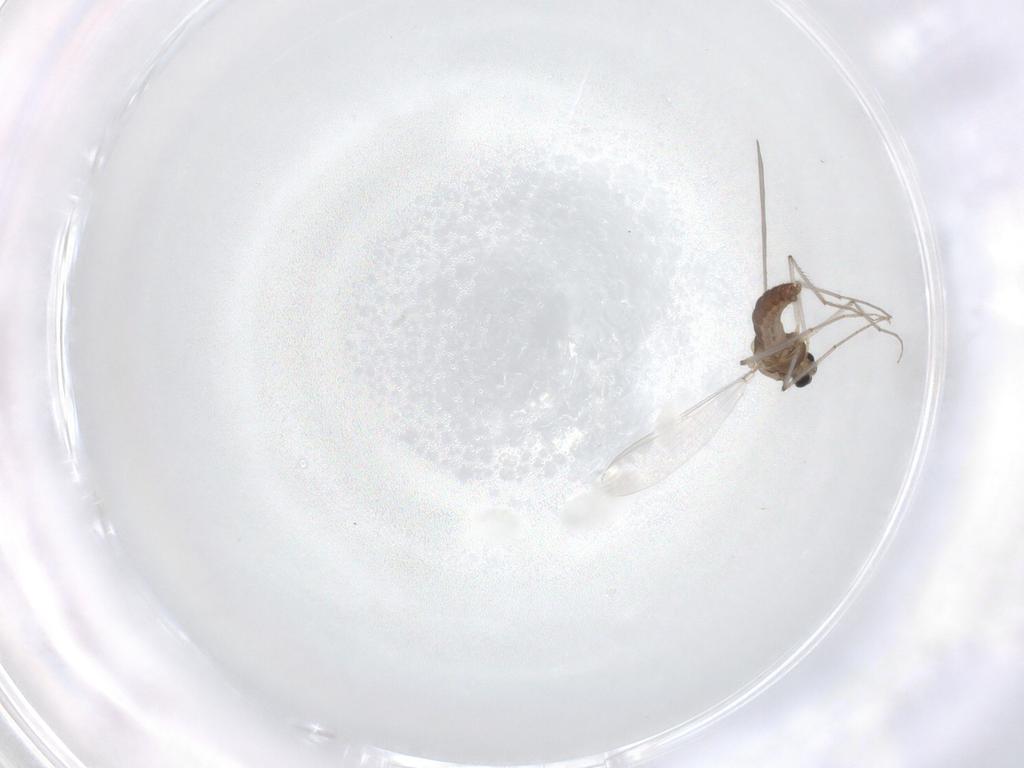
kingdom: Animalia
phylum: Arthropoda
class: Insecta
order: Diptera
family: Chironomidae
